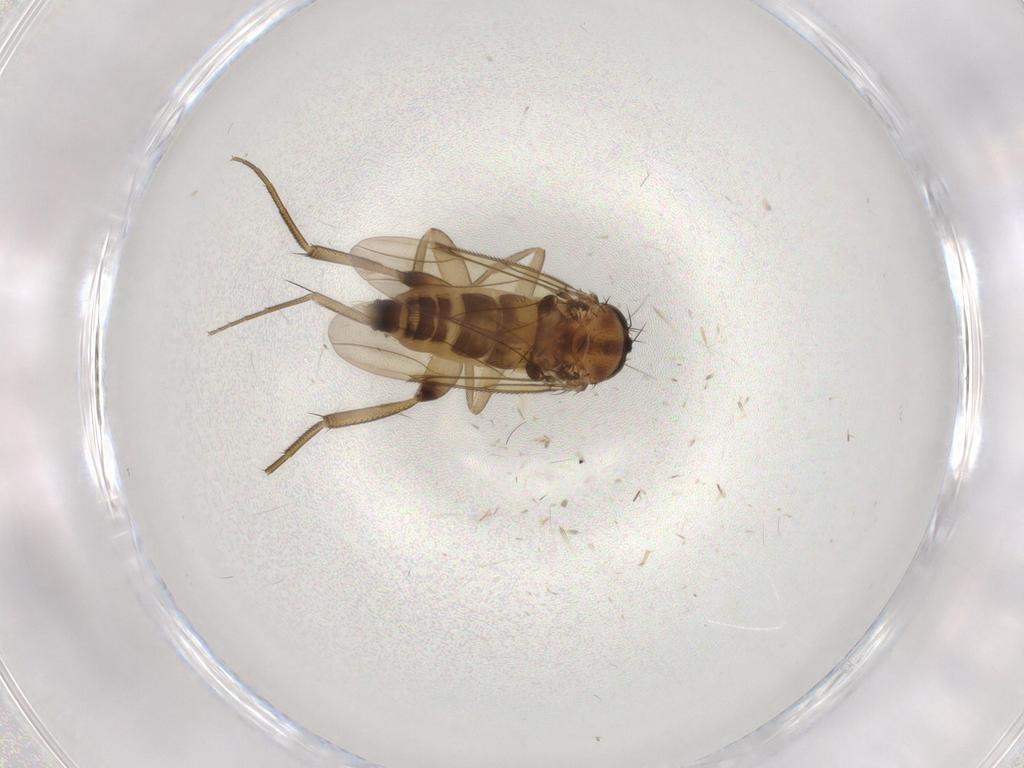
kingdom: Animalia
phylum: Arthropoda
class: Insecta
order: Diptera
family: Phoridae
